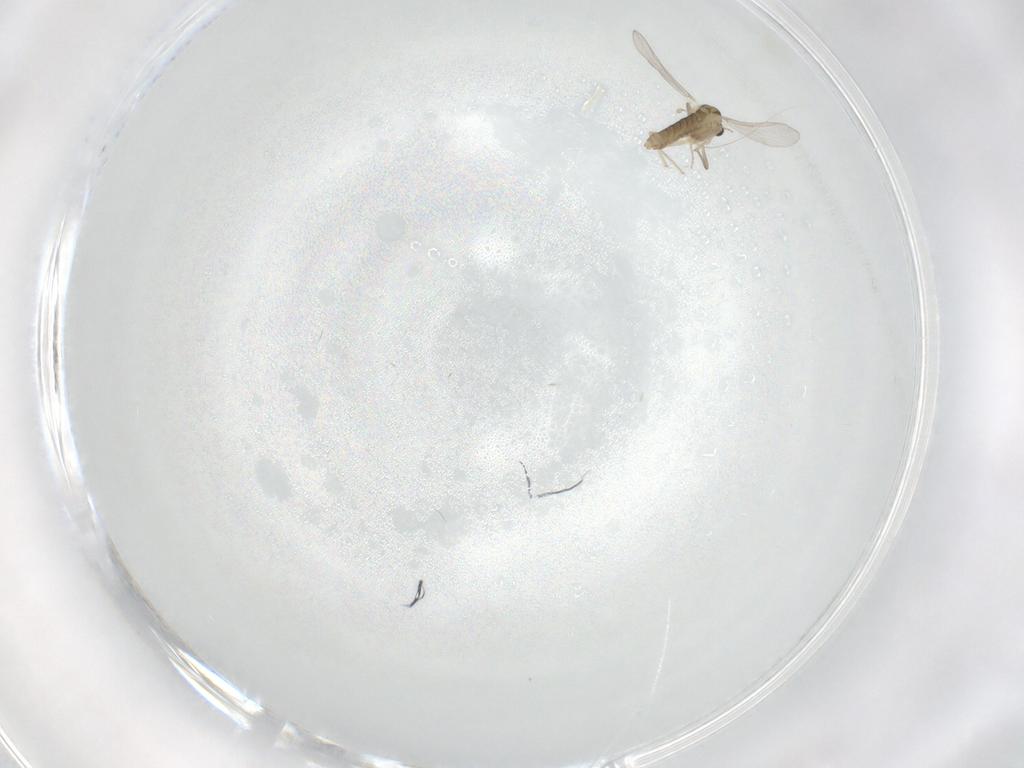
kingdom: Animalia
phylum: Arthropoda
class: Insecta
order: Diptera
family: Chironomidae
